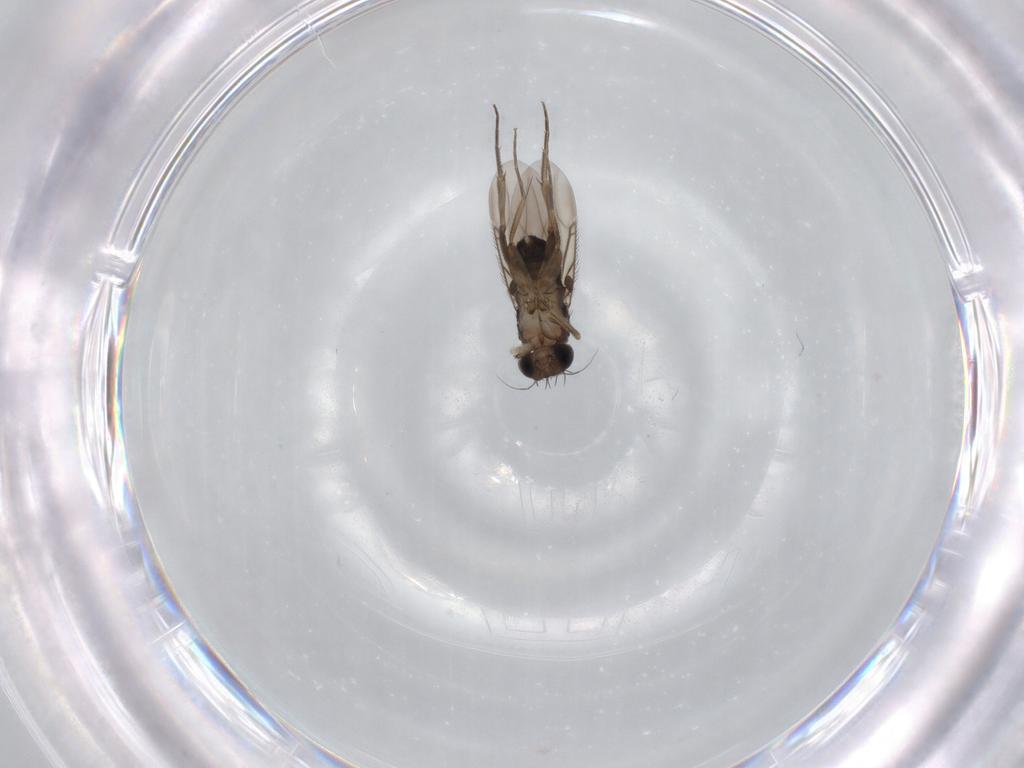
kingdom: Animalia
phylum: Arthropoda
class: Insecta
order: Diptera
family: Phoridae
